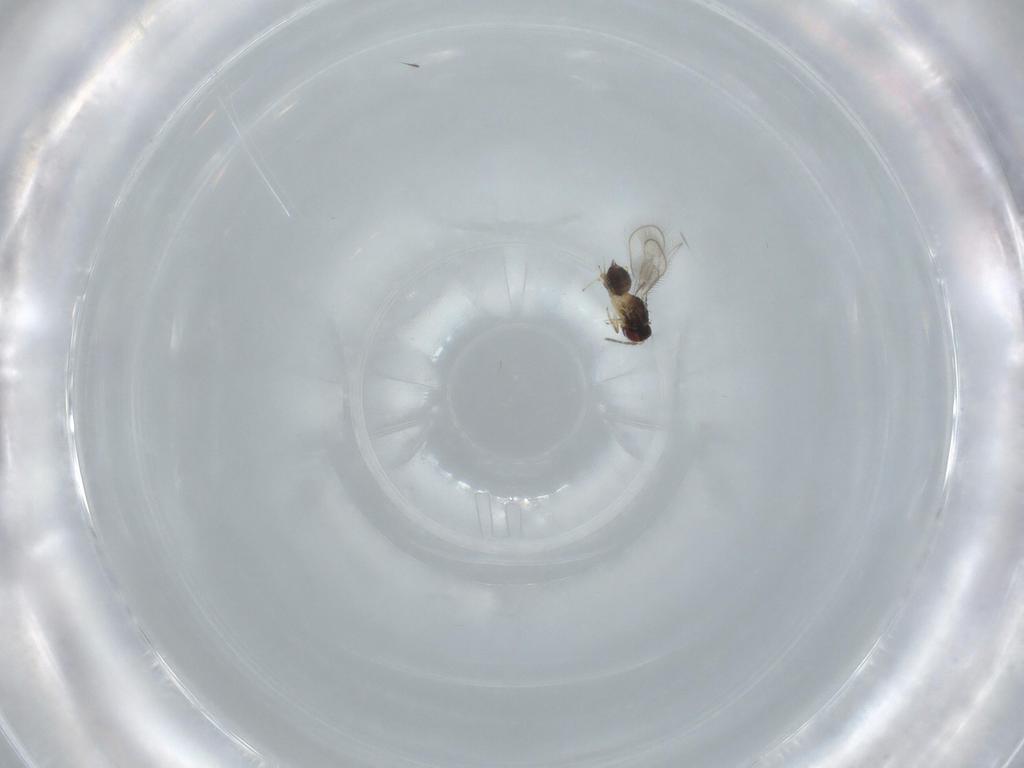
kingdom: Animalia
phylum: Arthropoda
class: Insecta
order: Hymenoptera
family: Eulophidae
